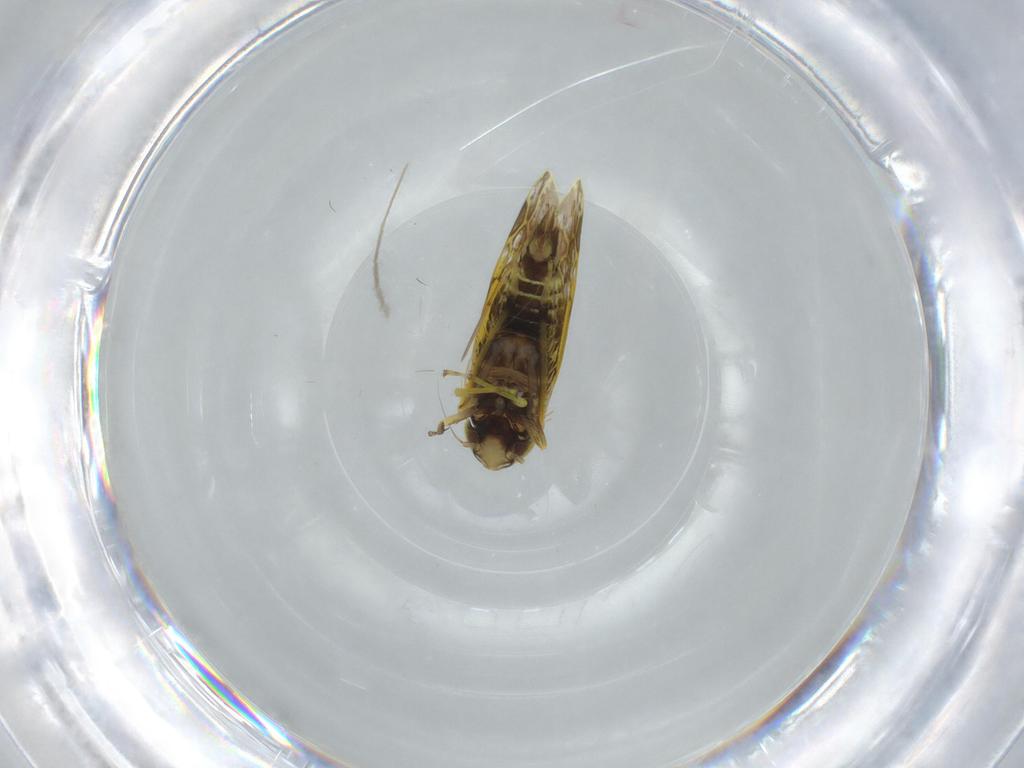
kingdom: Animalia
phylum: Arthropoda
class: Insecta
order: Hemiptera
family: Cicadellidae
